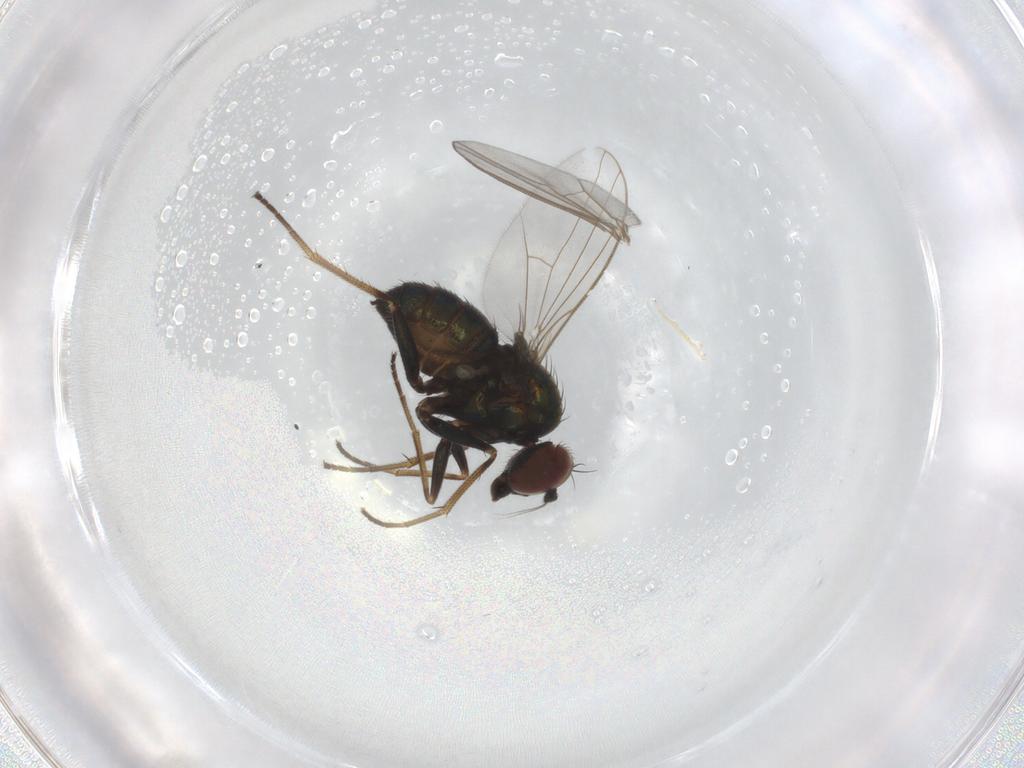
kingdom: Animalia
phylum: Arthropoda
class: Insecta
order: Diptera
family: Dolichopodidae
